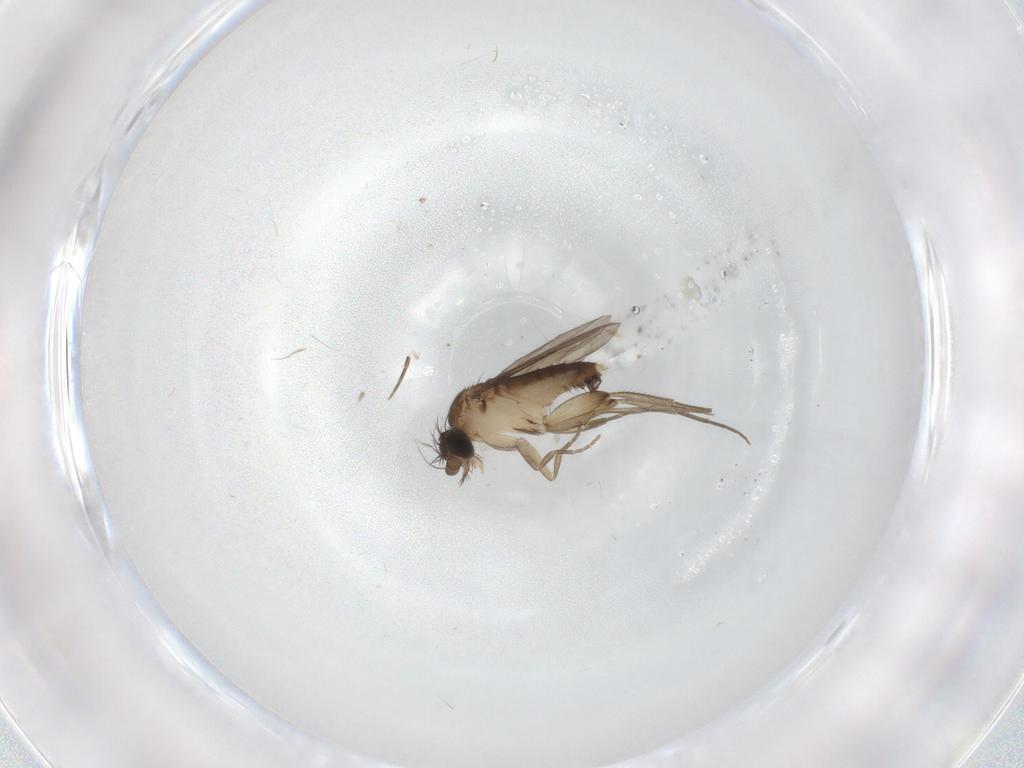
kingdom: Animalia
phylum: Arthropoda
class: Insecta
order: Diptera
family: Phoridae
